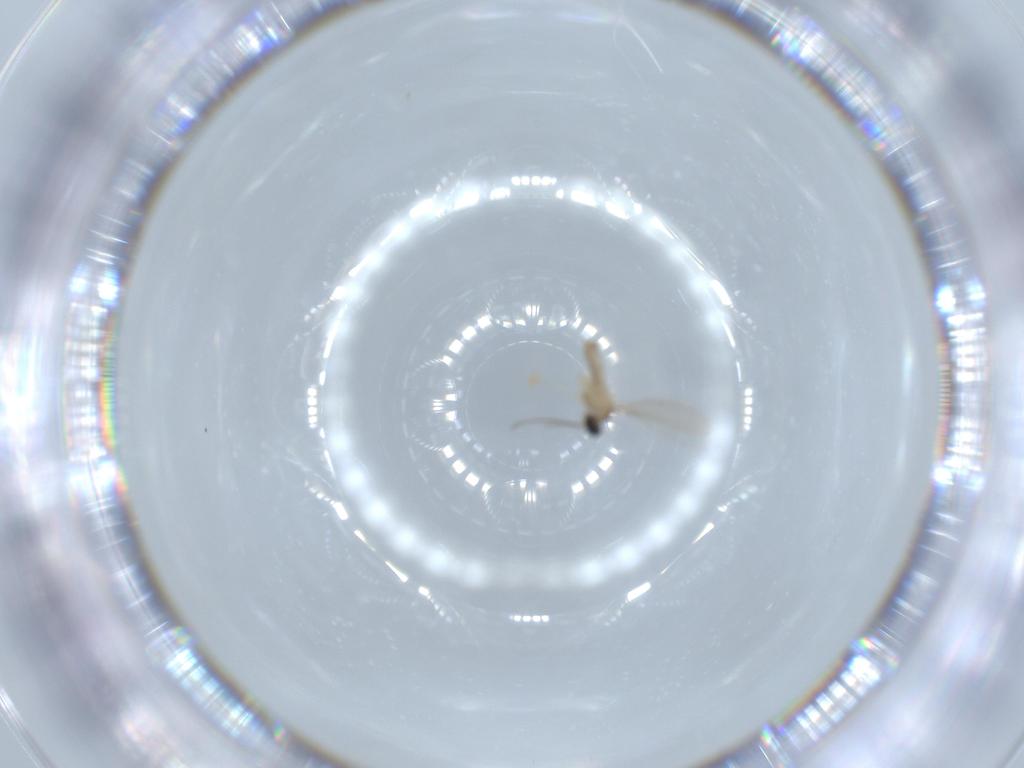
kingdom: Animalia
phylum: Arthropoda
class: Insecta
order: Diptera
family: Cecidomyiidae
